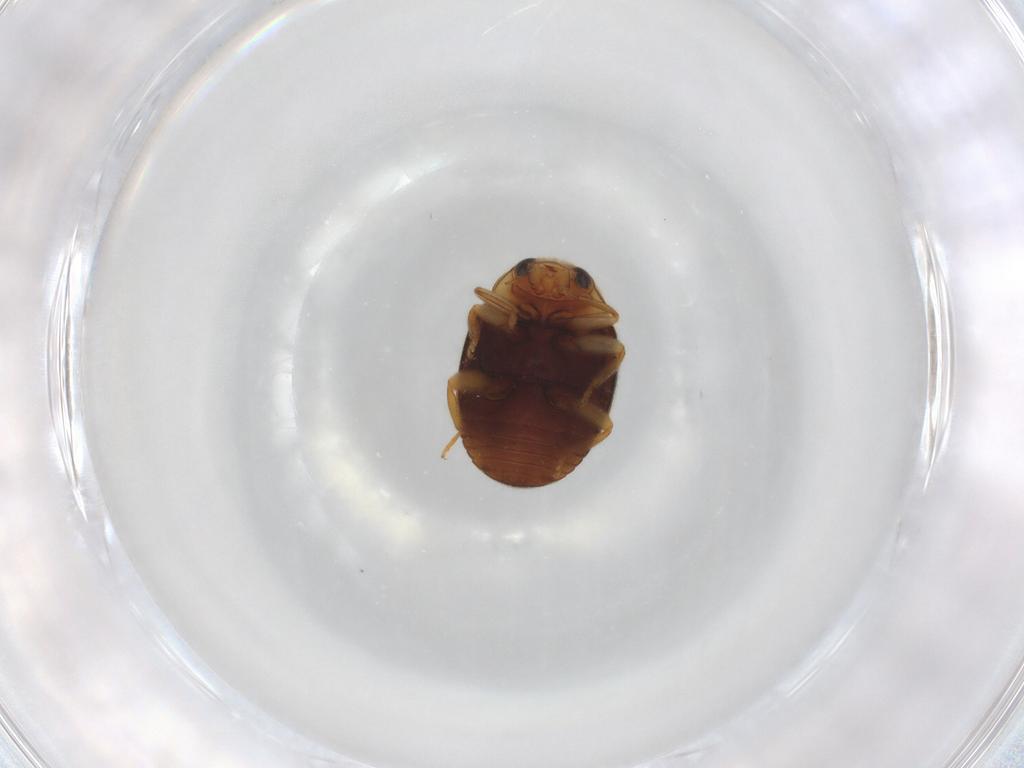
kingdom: Animalia
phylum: Arthropoda
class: Insecta
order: Coleoptera
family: Coccinellidae
